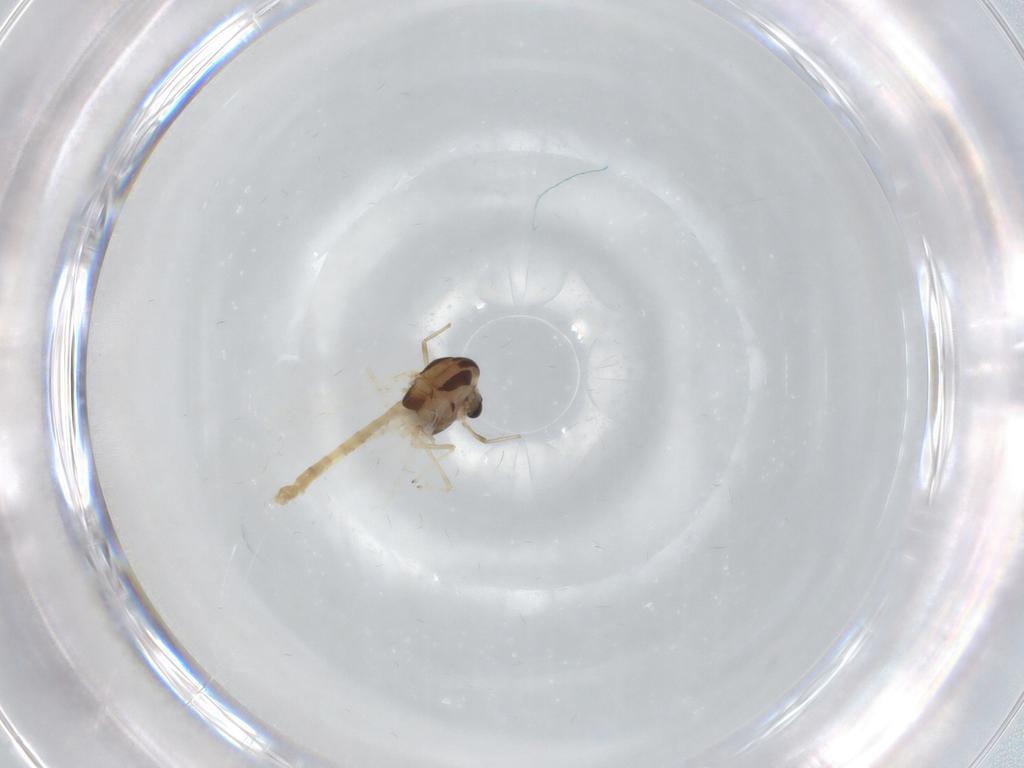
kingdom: Animalia
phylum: Arthropoda
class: Insecta
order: Diptera
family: Chironomidae
